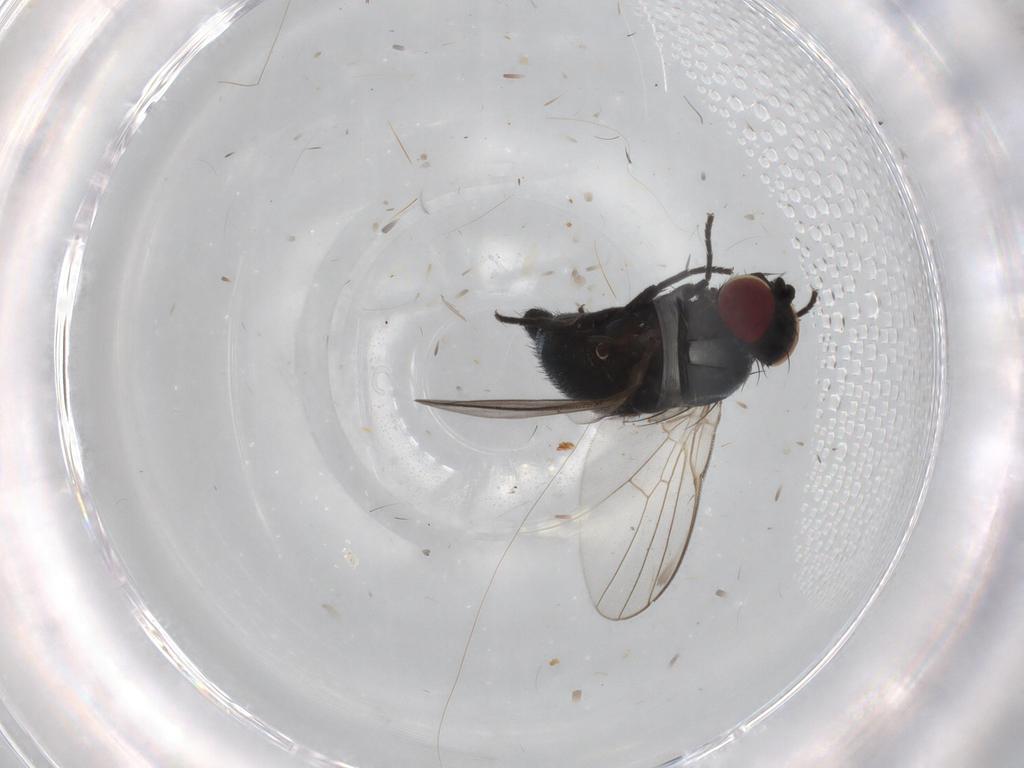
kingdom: Animalia
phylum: Arthropoda
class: Insecta
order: Diptera
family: Agromyzidae
